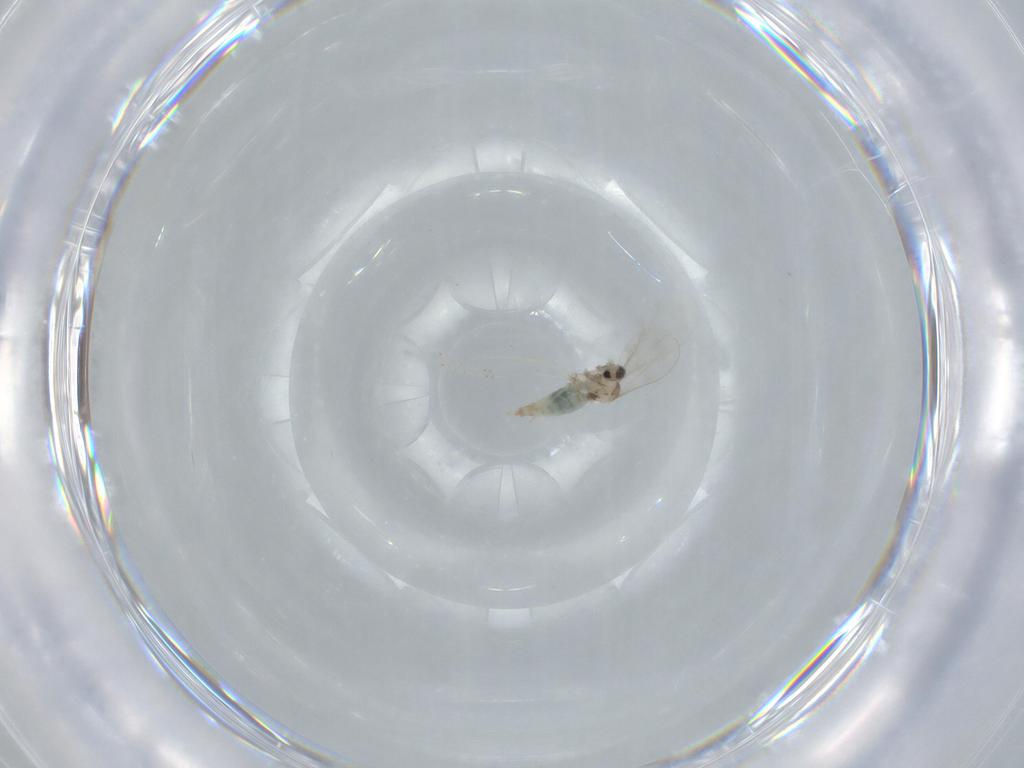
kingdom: Animalia
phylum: Arthropoda
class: Insecta
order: Diptera
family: Cecidomyiidae
